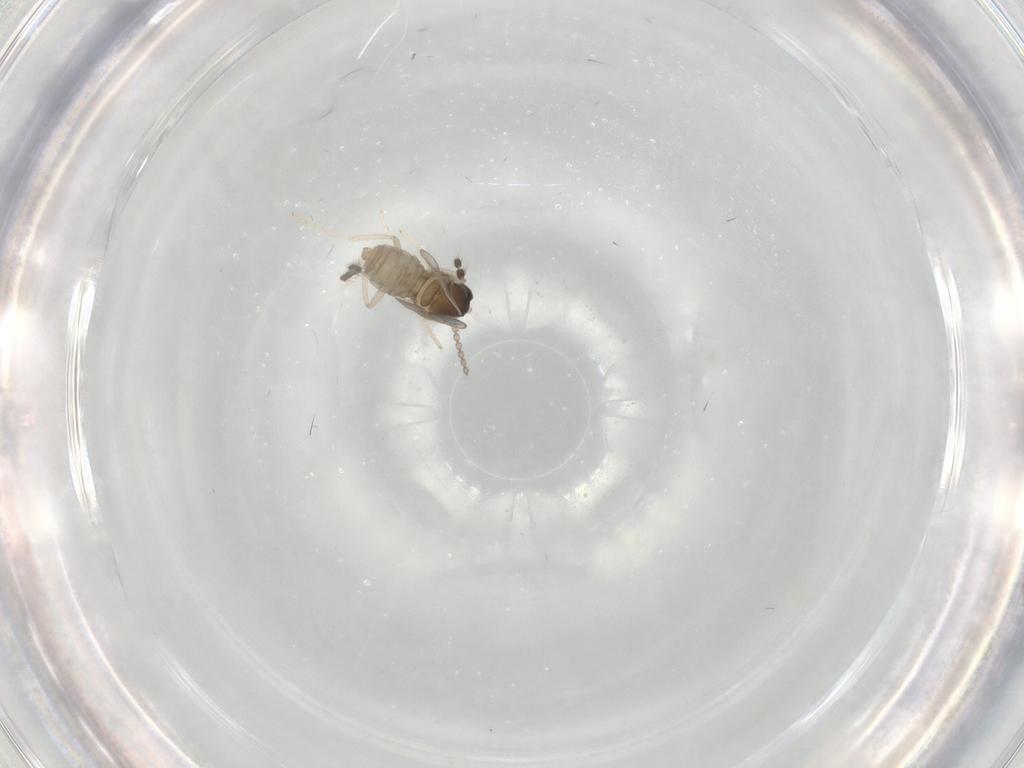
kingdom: Animalia
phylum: Arthropoda
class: Insecta
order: Diptera
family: Limoniidae
